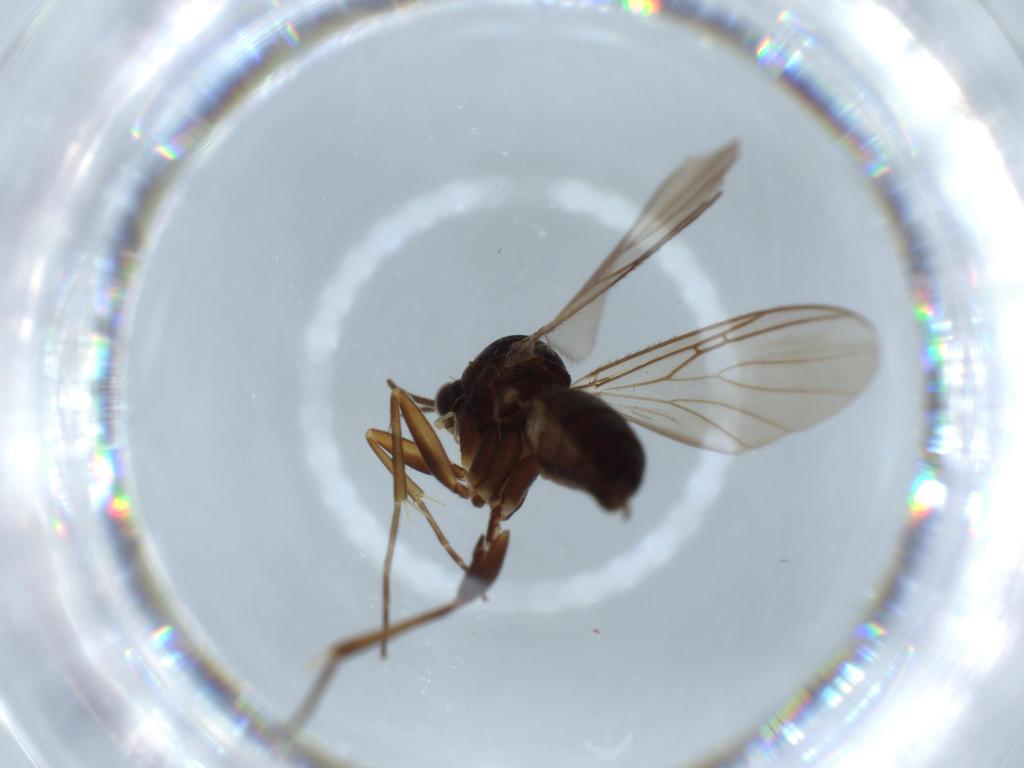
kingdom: Animalia
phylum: Arthropoda
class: Insecta
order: Diptera
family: Mycetophilidae
